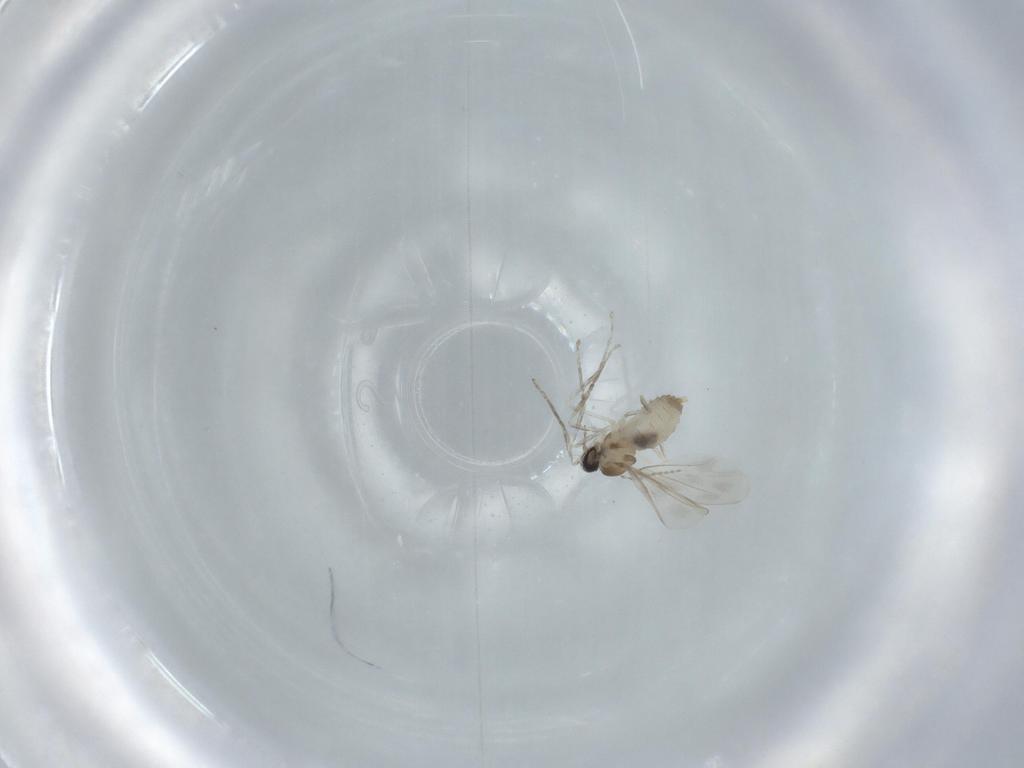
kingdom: Animalia
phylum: Arthropoda
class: Insecta
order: Diptera
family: Cecidomyiidae
